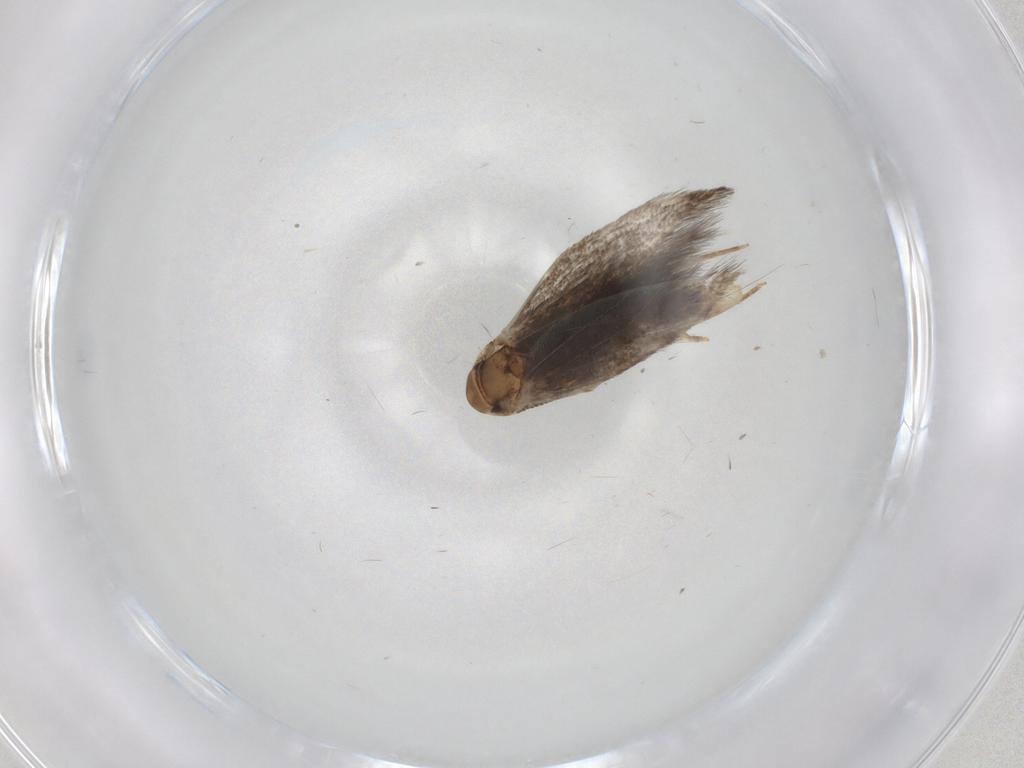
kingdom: Animalia
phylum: Arthropoda
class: Insecta
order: Lepidoptera
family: Gelechiidae
